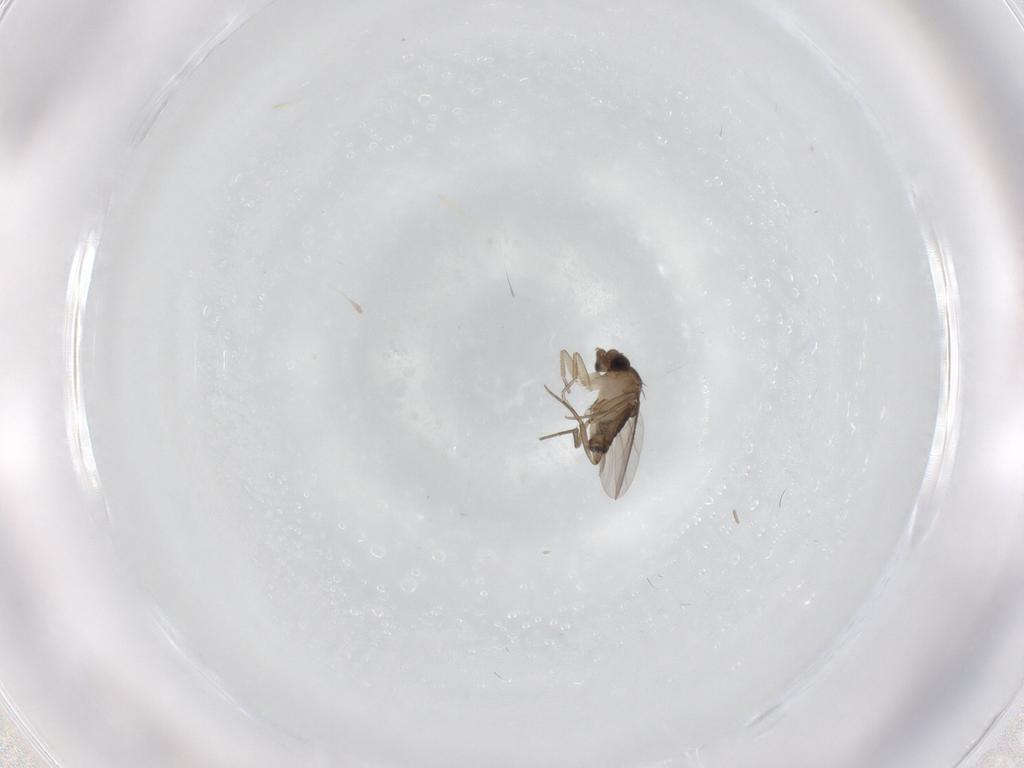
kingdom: Animalia
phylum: Arthropoda
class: Insecta
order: Diptera
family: Phoridae
